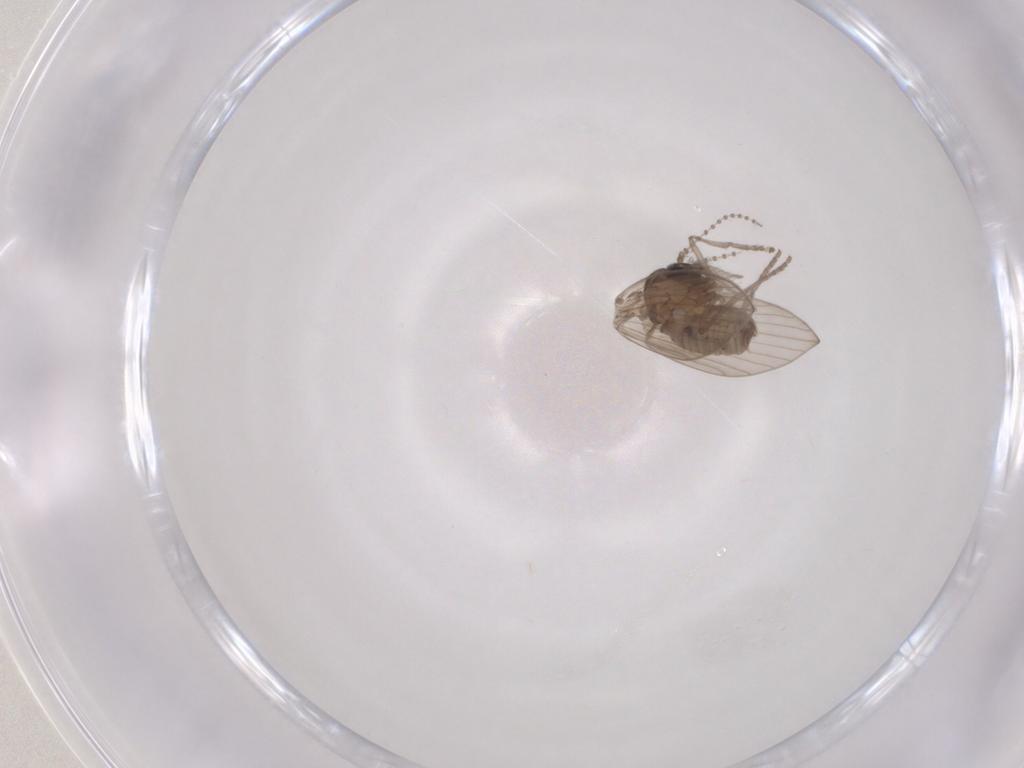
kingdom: Animalia
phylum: Arthropoda
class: Insecta
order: Diptera
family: Psychodidae
